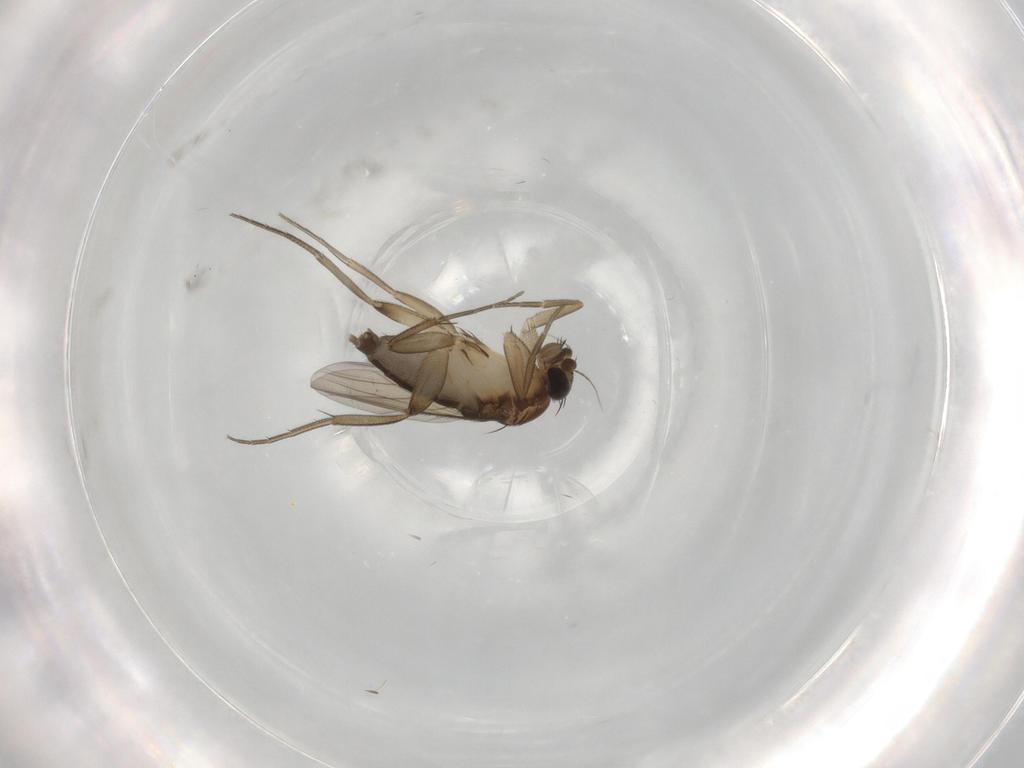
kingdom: Animalia
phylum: Arthropoda
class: Insecta
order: Diptera
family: Phoridae
